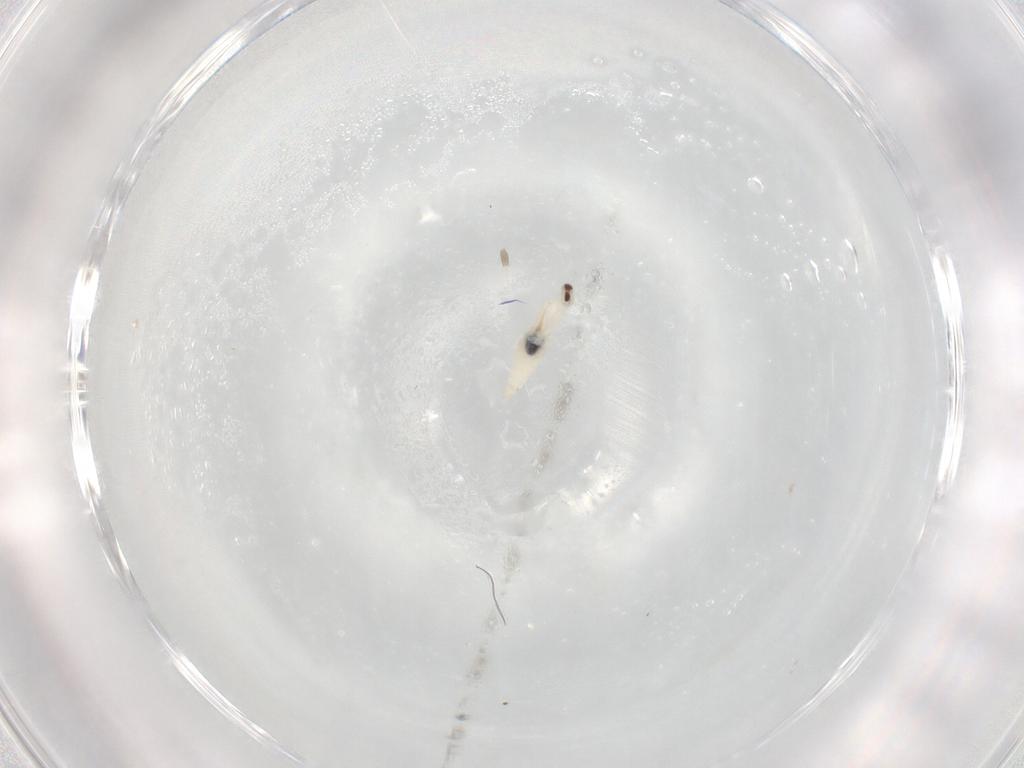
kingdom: Animalia
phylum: Arthropoda
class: Insecta
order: Diptera
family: Cecidomyiidae
